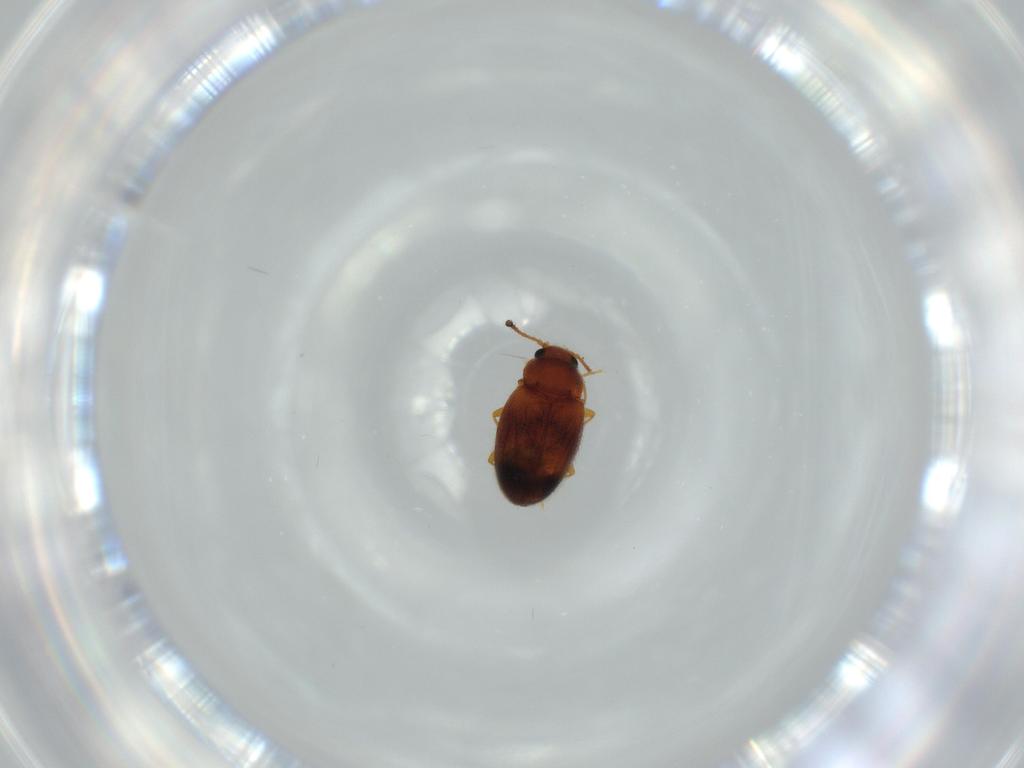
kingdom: Animalia
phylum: Arthropoda
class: Insecta
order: Coleoptera
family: Erotylidae
